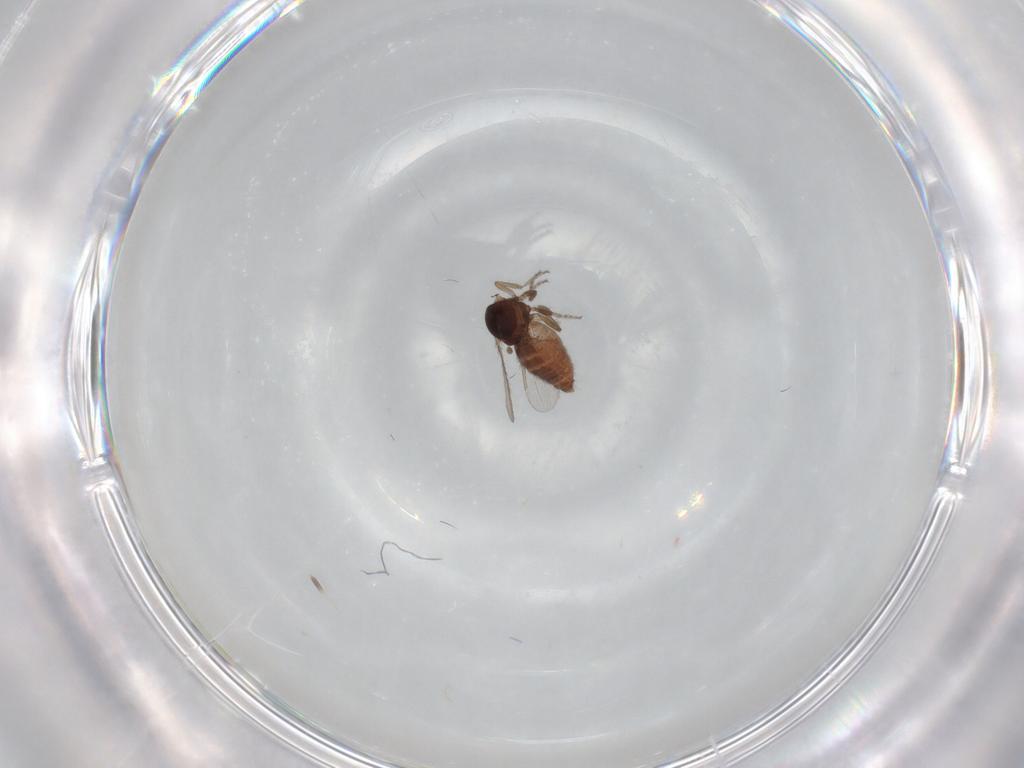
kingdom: Animalia
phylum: Arthropoda
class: Insecta
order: Diptera
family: Ceratopogonidae
